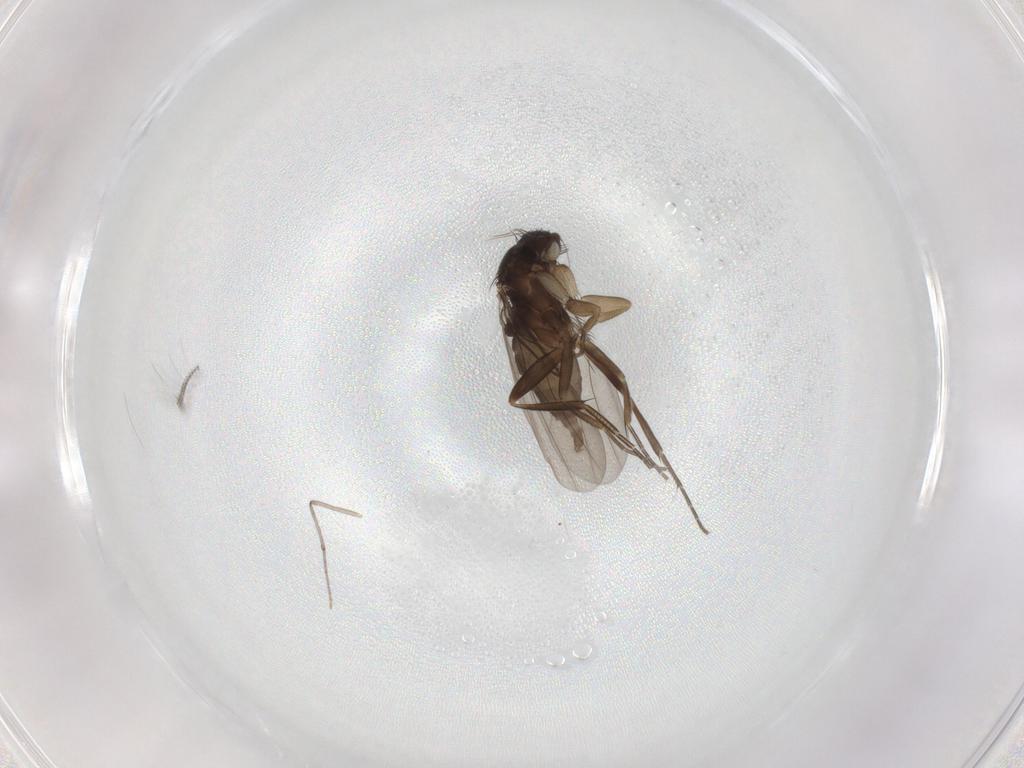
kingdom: Animalia
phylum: Arthropoda
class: Insecta
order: Diptera
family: Phoridae
